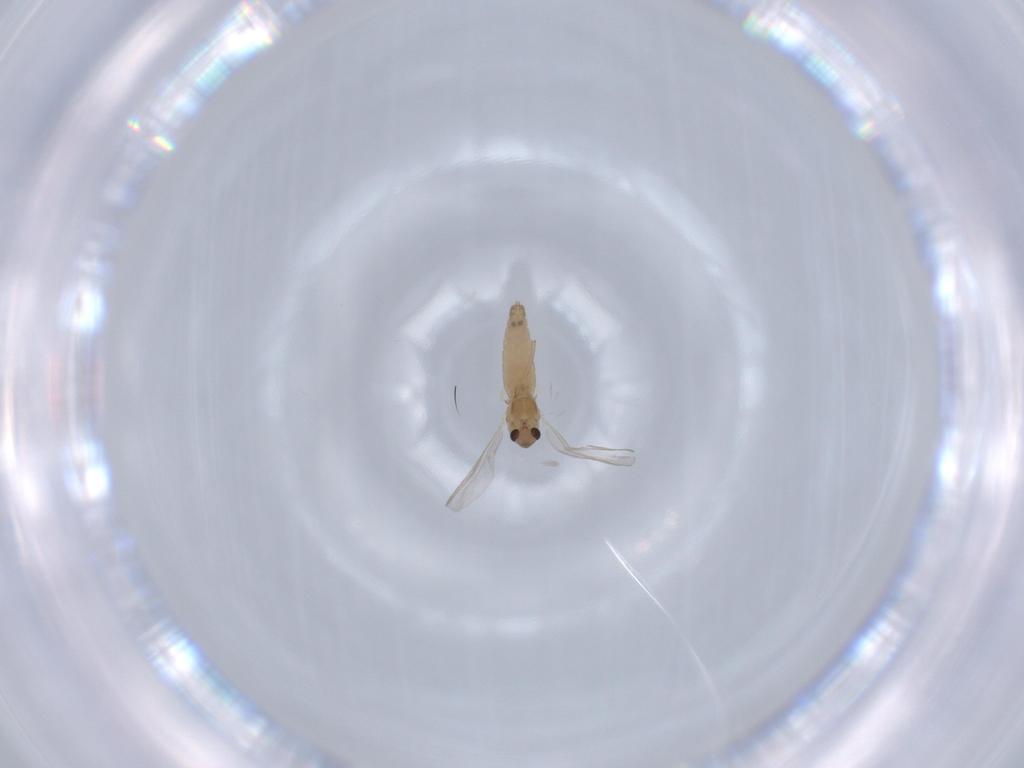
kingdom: Animalia
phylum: Arthropoda
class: Insecta
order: Diptera
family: Chironomidae
